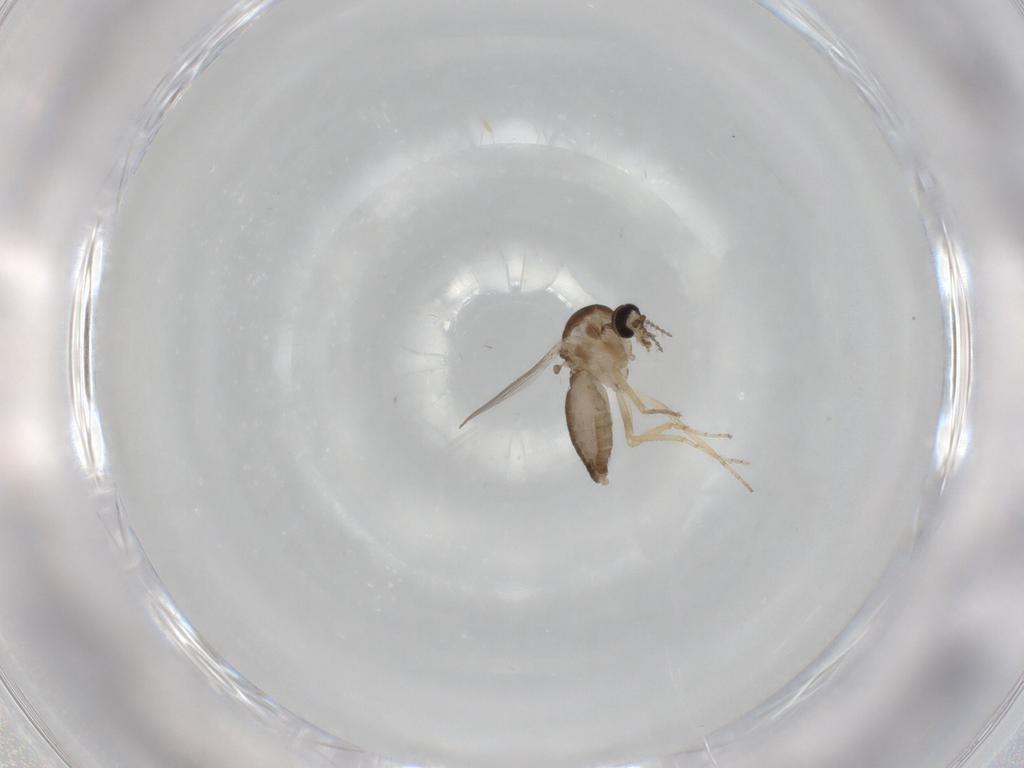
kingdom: Animalia
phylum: Arthropoda
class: Insecta
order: Diptera
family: Ceratopogonidae
